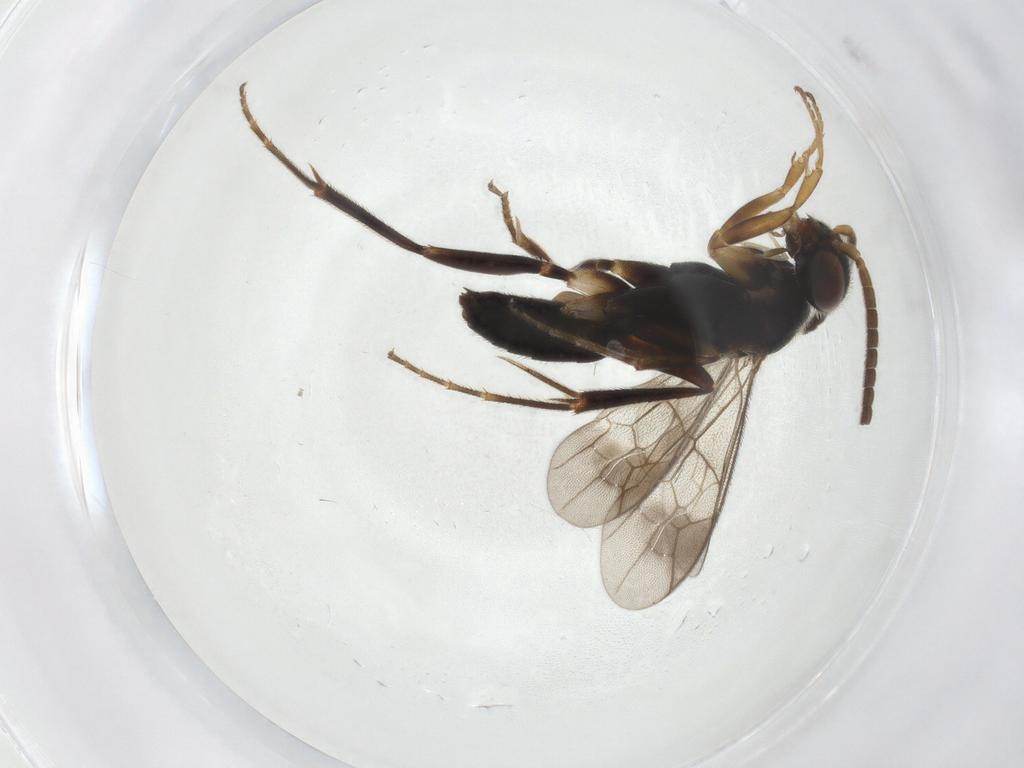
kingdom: Animalia
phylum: Arthropoda
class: Insecta
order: Hymenoptera
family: Pompilidae
